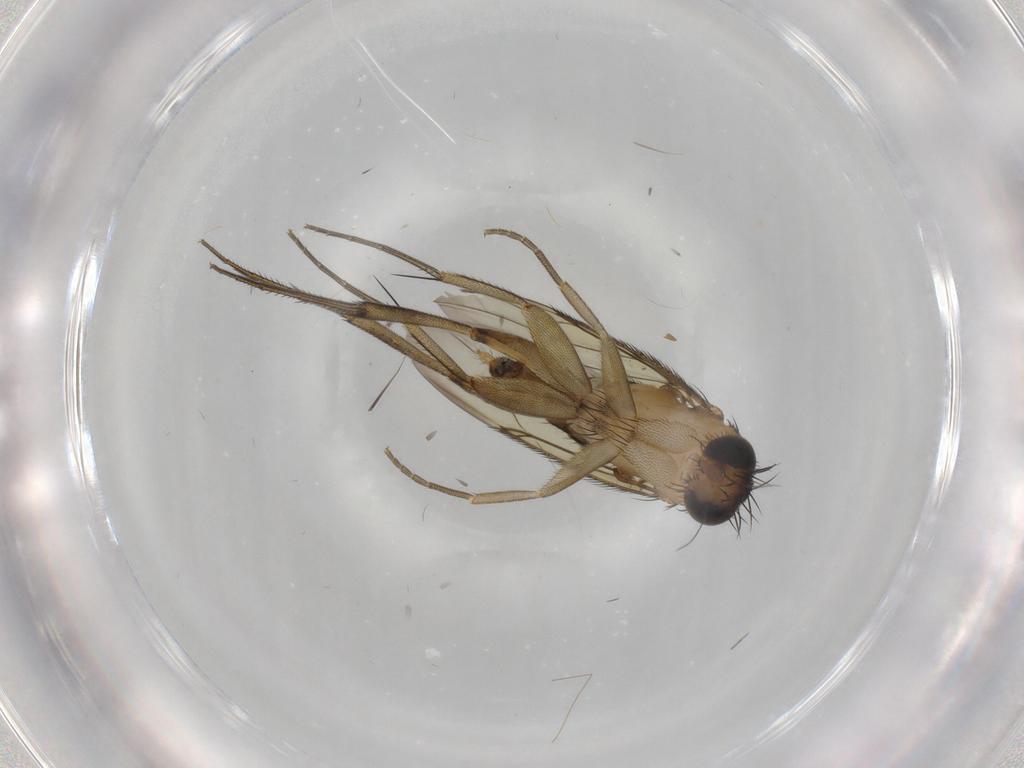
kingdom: Animalia
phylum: Arthropoda
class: Insecta
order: Diptera
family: Phoridae
